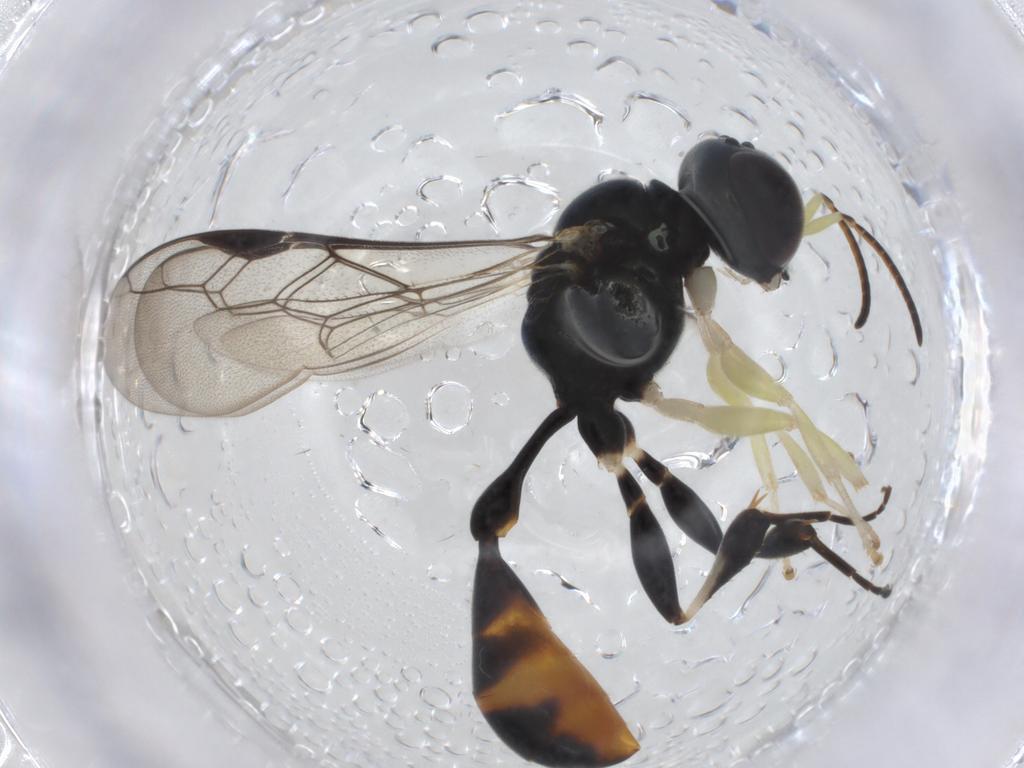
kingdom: Animalia
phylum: Arthropoda
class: Insecta
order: Hymenoptera
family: Crabronidae
